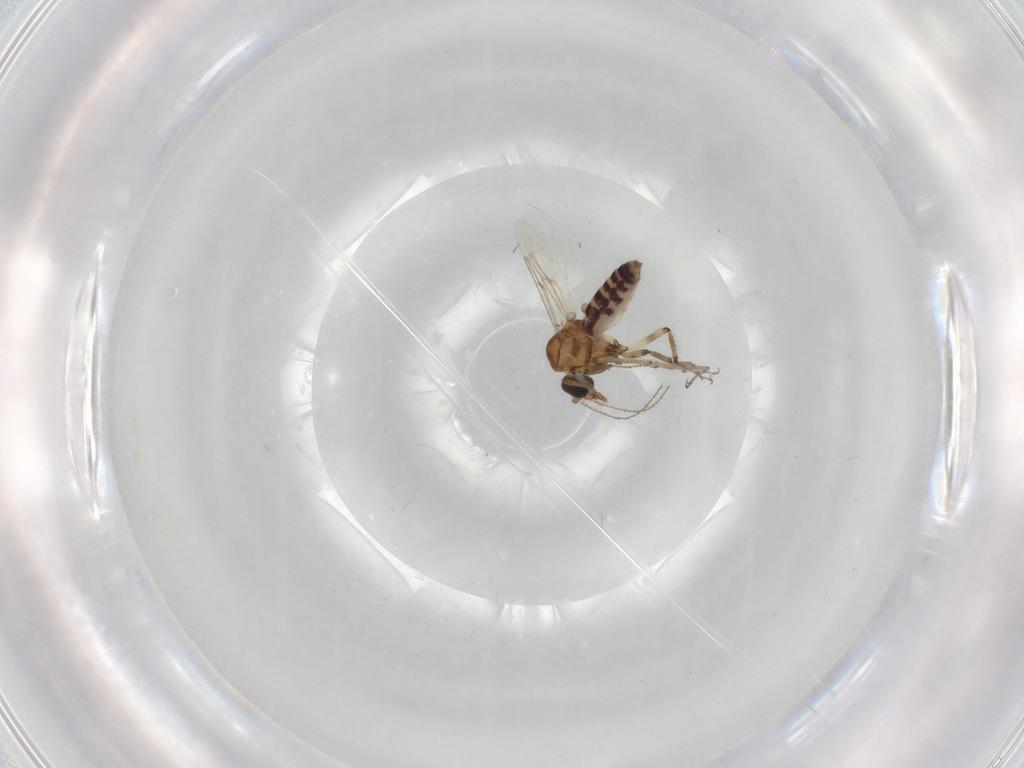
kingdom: Animalia
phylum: Arthropoda
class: Insecta
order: Diptera
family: Ceratopogonidae
